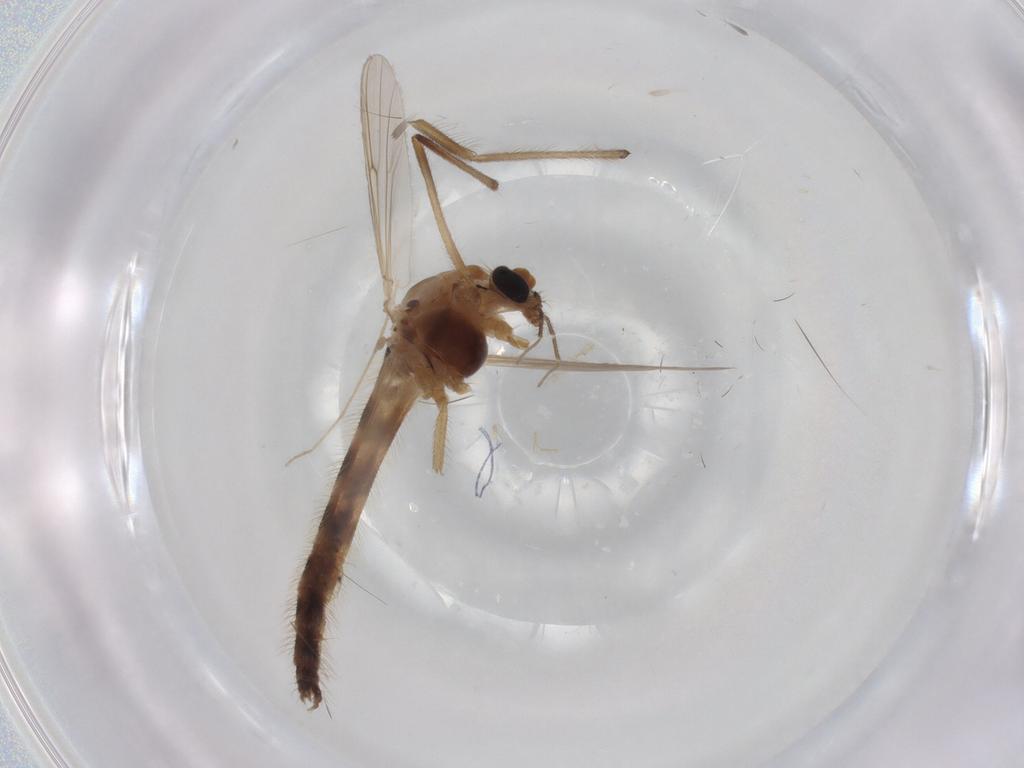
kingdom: Animalia
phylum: Arthropoda
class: Insecta
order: Diptera
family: Chironomidae
